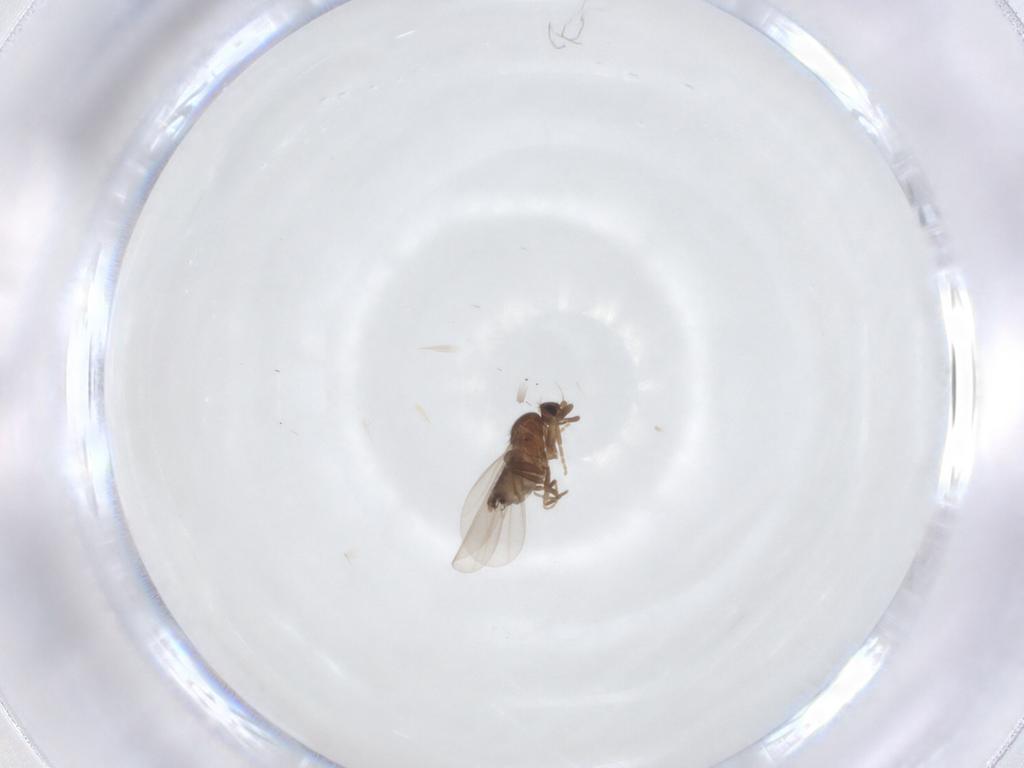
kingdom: Animalia
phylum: Arthropoda
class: Insecta
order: Diptera
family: Phoridae
